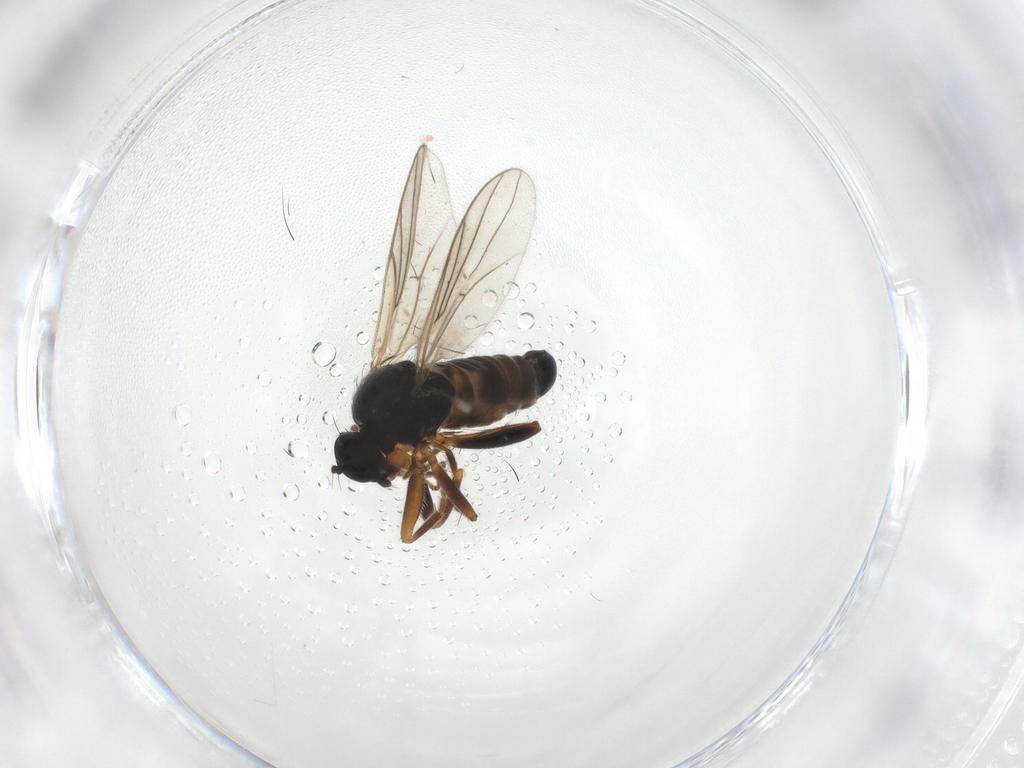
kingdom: Animalia
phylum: Arthropoda
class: Insecta
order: Diptera
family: Hybotidae
